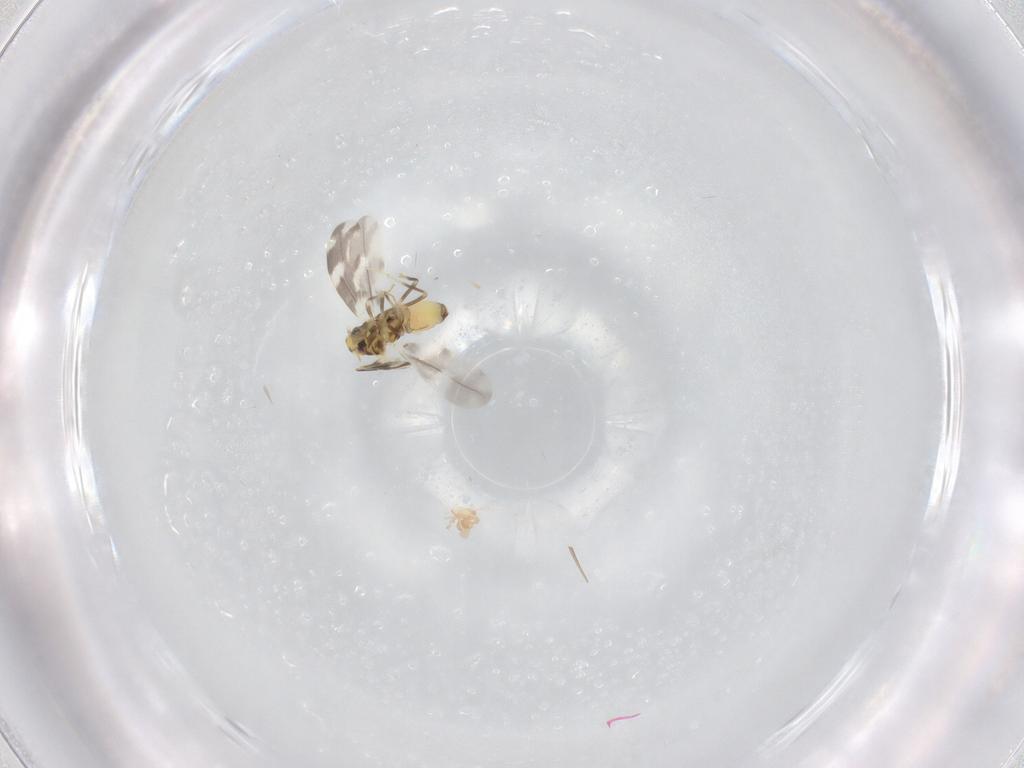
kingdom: Animalia
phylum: Arthropoda
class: Insecta
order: Hemiptera
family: Aleyrodidae
